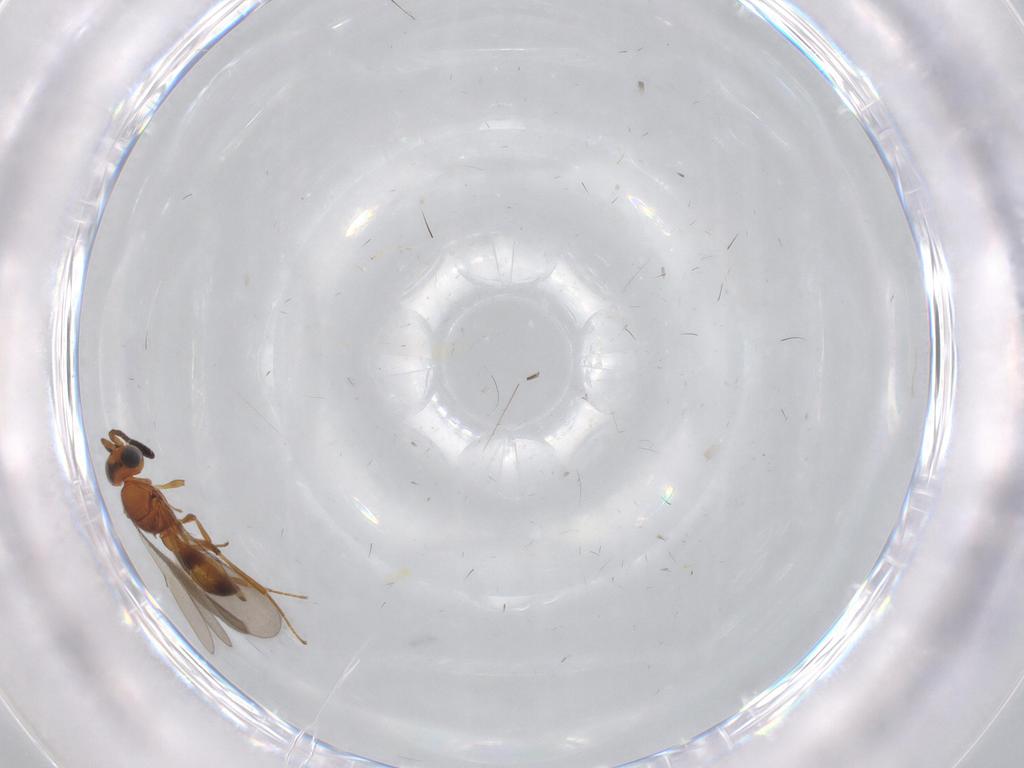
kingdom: Animalia
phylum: Arthropoda
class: Insecta
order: Hymenoptera
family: Scelionidae
